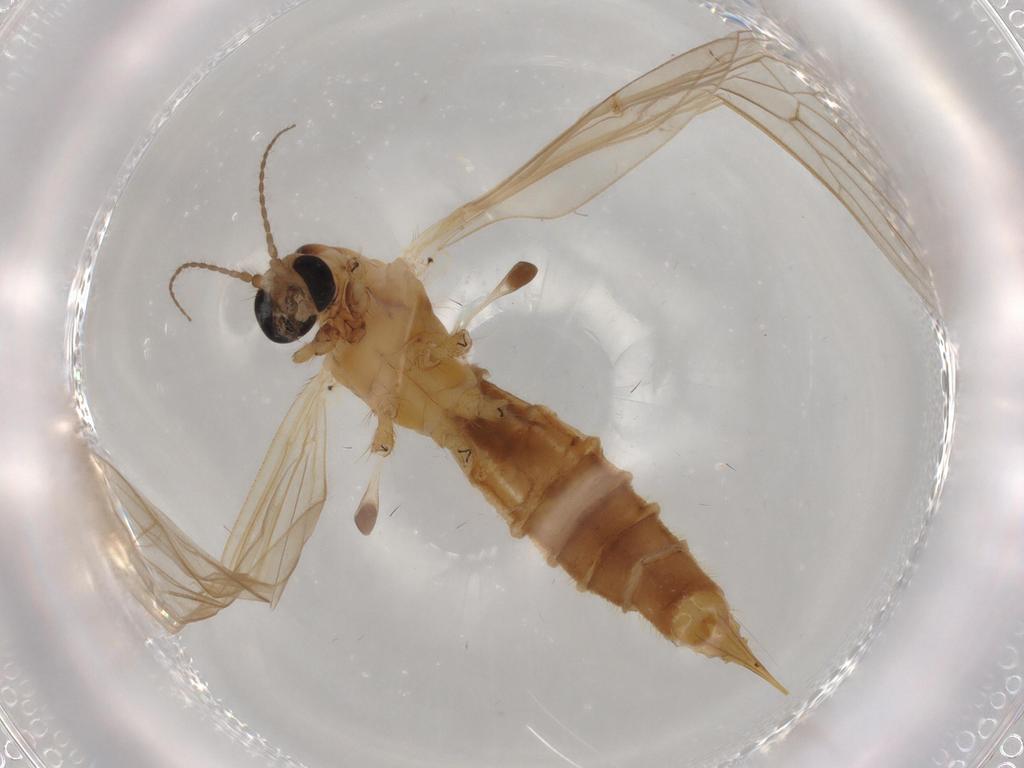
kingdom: Animalia
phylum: Arthropoda
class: Insecta
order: Diptera
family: Limoniidae
